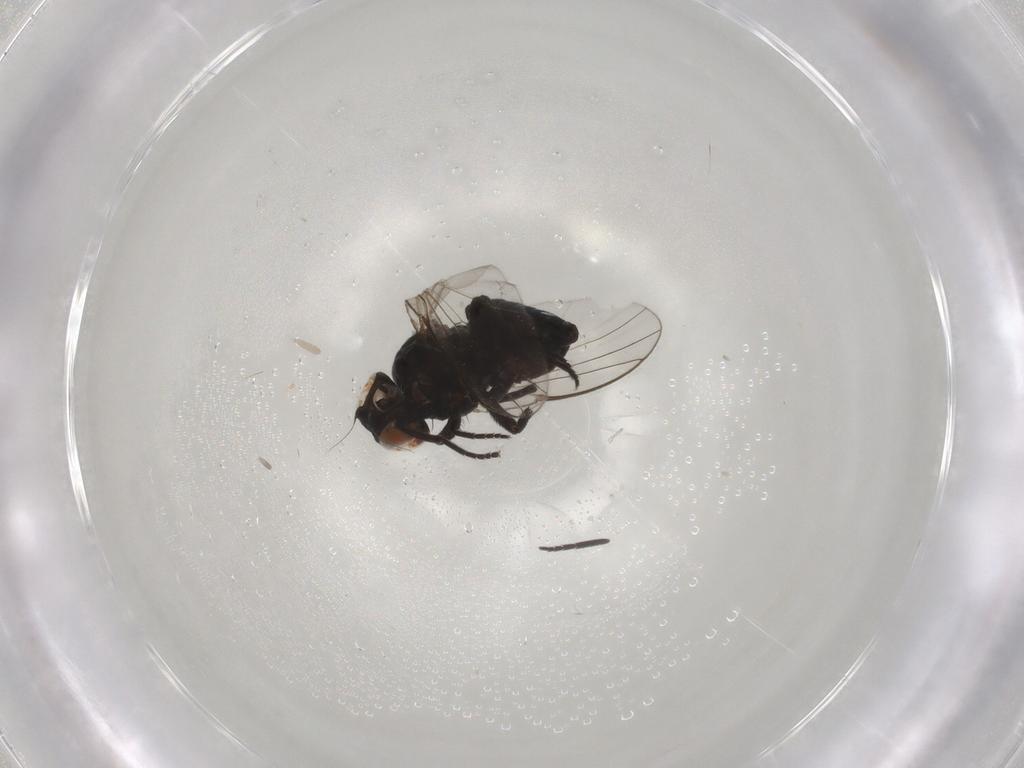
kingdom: Animalia
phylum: Arthropoda
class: Insecta
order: Diptera
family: Agromyzidae
